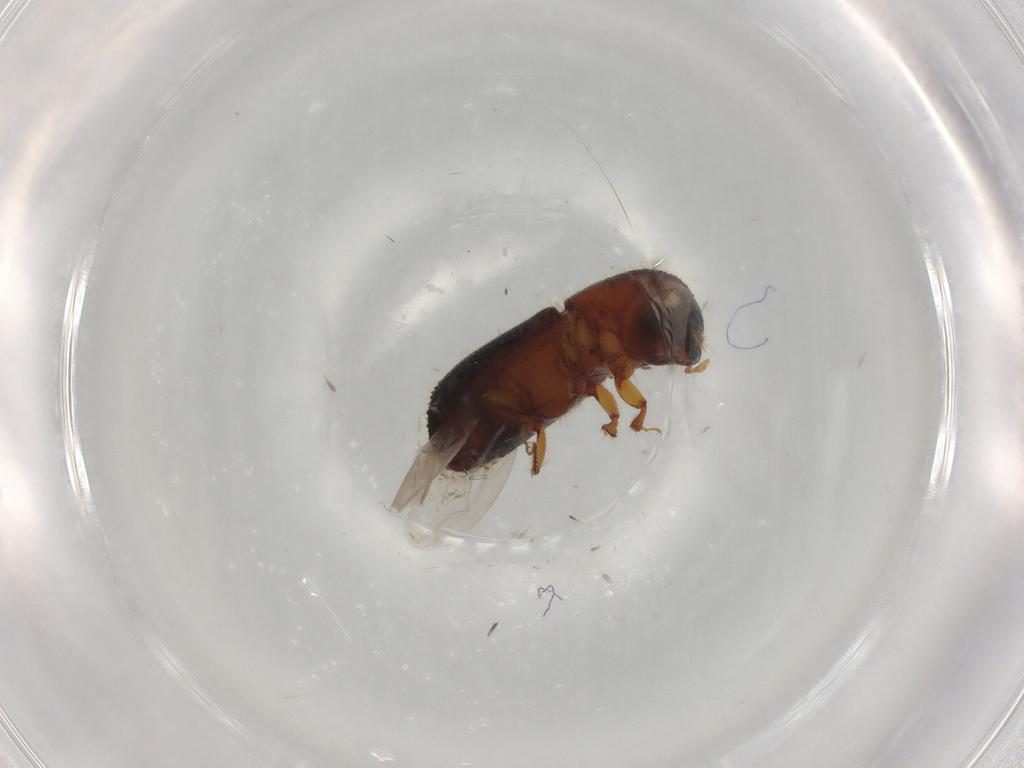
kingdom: Animalia
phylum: Arthropoda
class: Insecta
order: Coleoptera
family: Curculionidae
